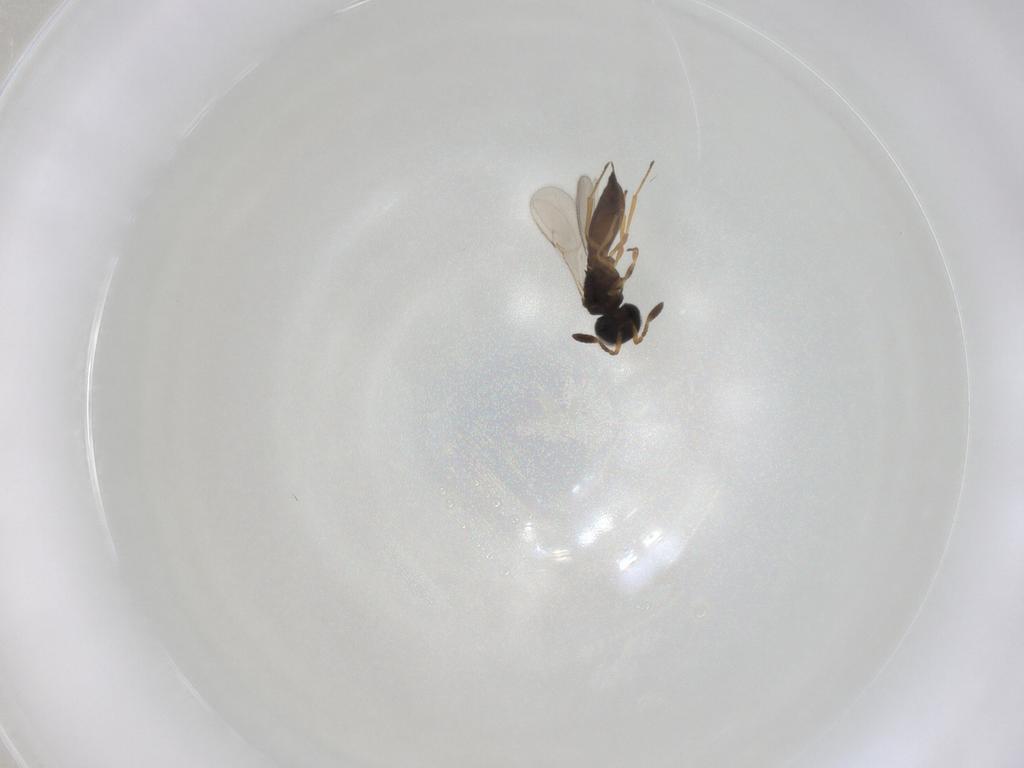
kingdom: Animalia
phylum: Arthropoda
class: Insecta
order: Hymenoptera
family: Scelionidae
